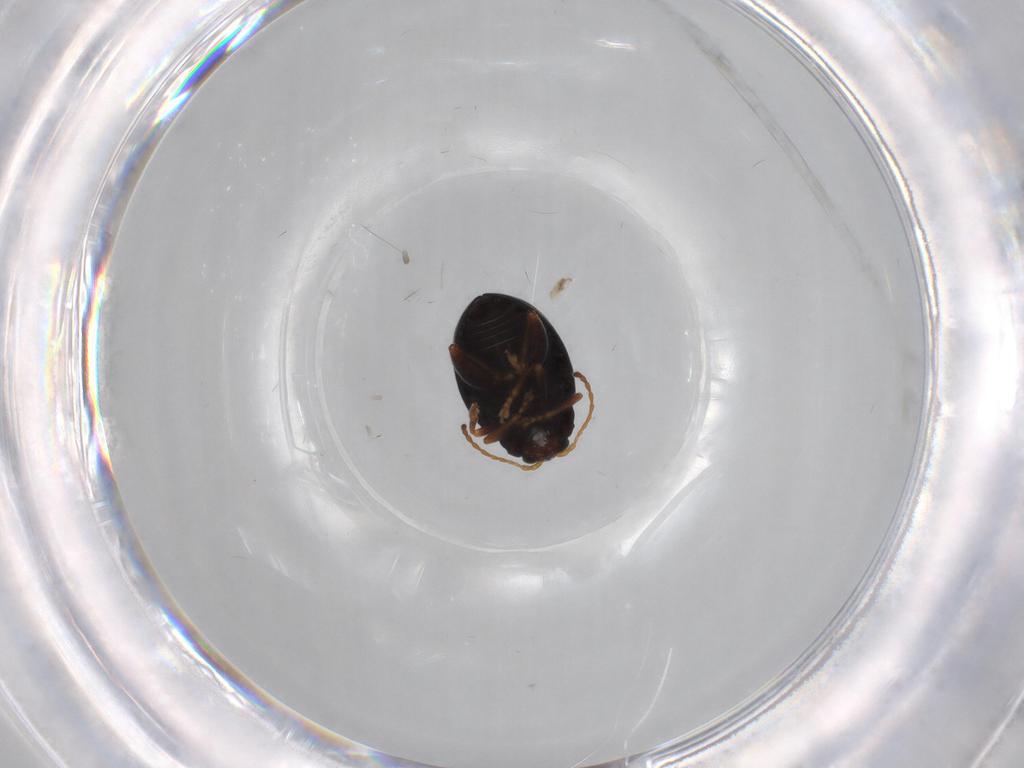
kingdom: Animalia
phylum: Arthropoda
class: Insecta
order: Coleoptera
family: Chrysomelidae
